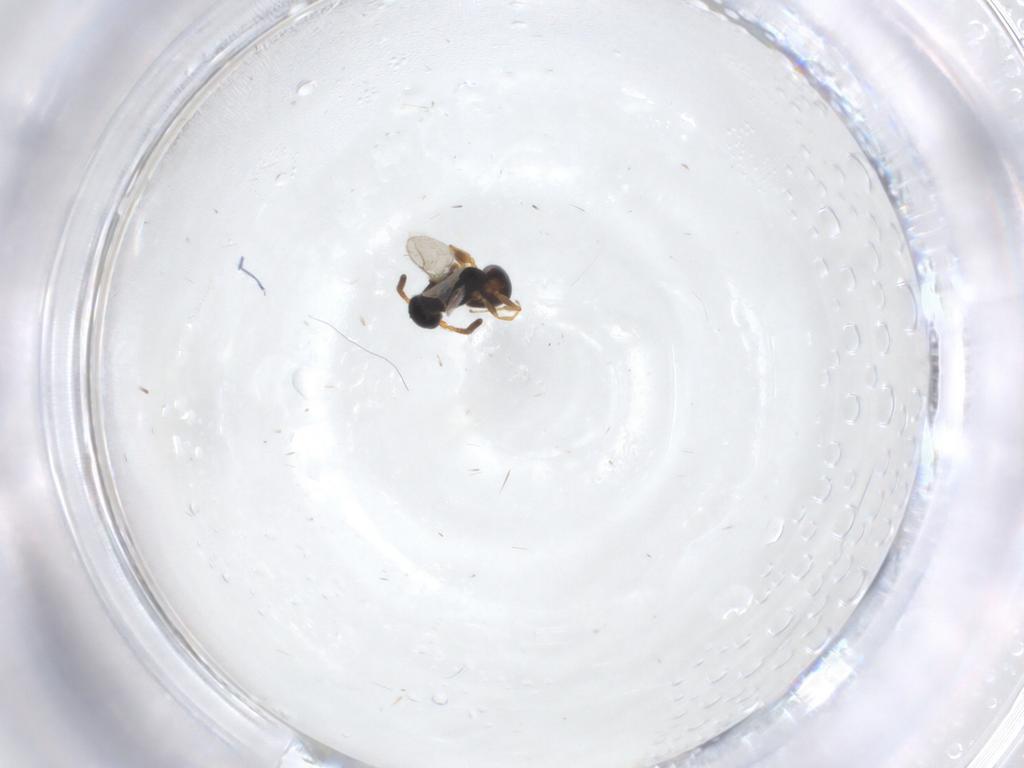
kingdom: Animalia
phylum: Arthropoda
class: Insecta
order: Hymenoptera
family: Bethylidae
